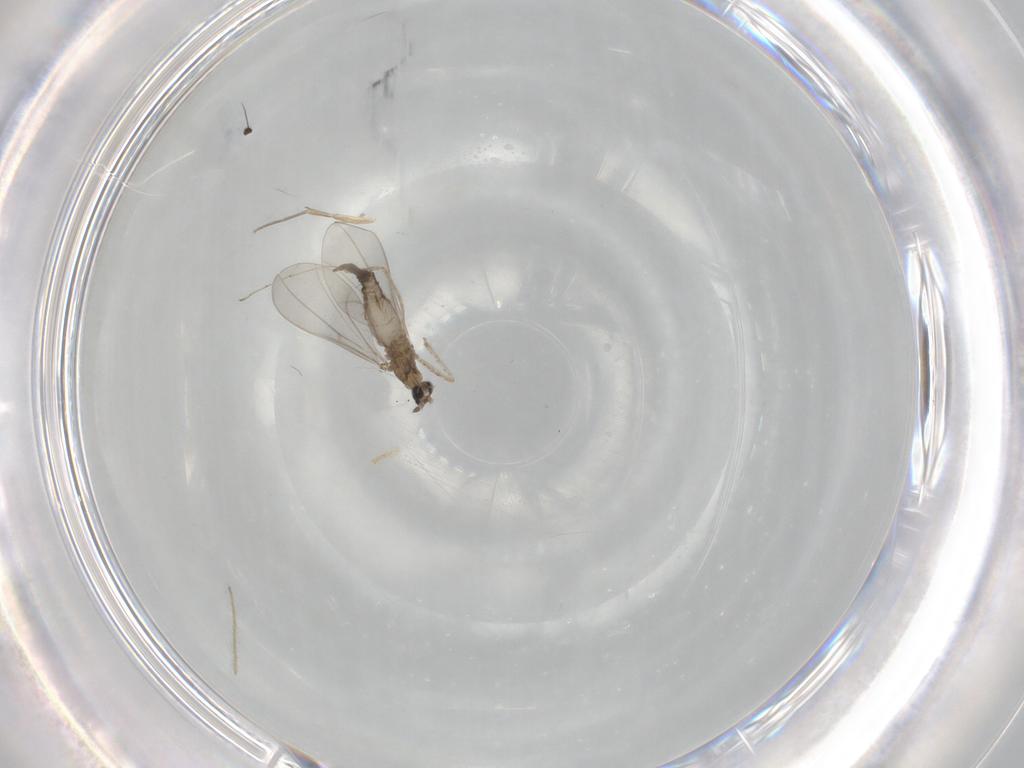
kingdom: Animalia
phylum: Arthropoda
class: Insecta
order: Diptera
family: Cecidomyiidae
